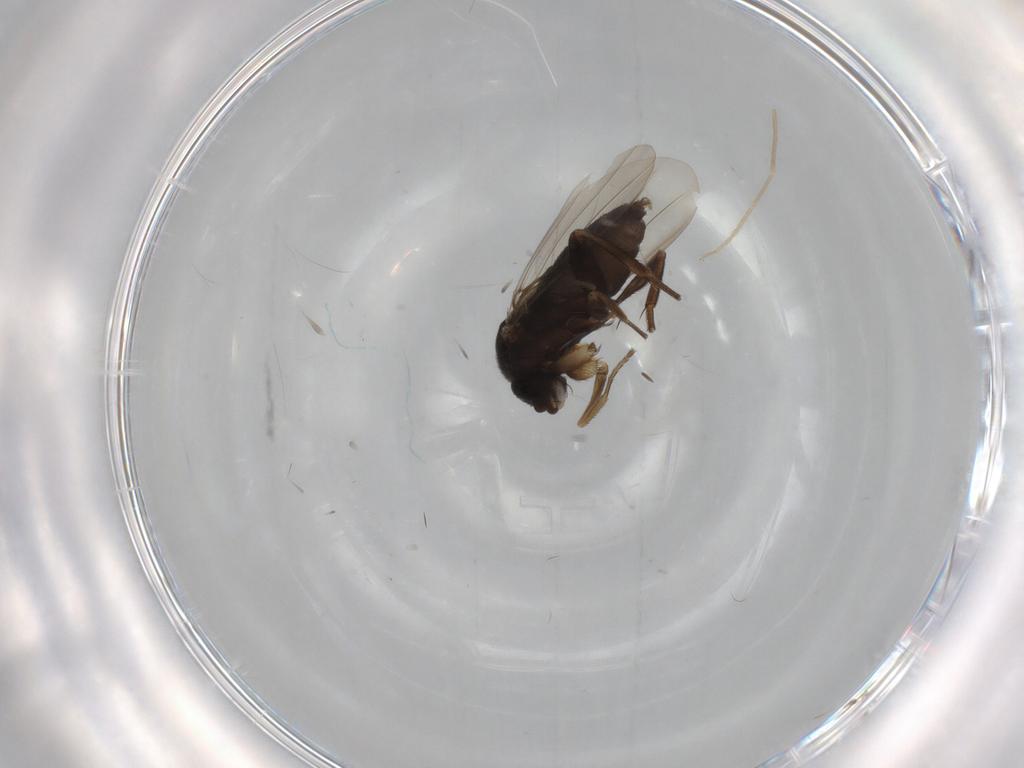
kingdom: Animalia
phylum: Arthropoda
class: Insecta
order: Diptera
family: Phoridae
